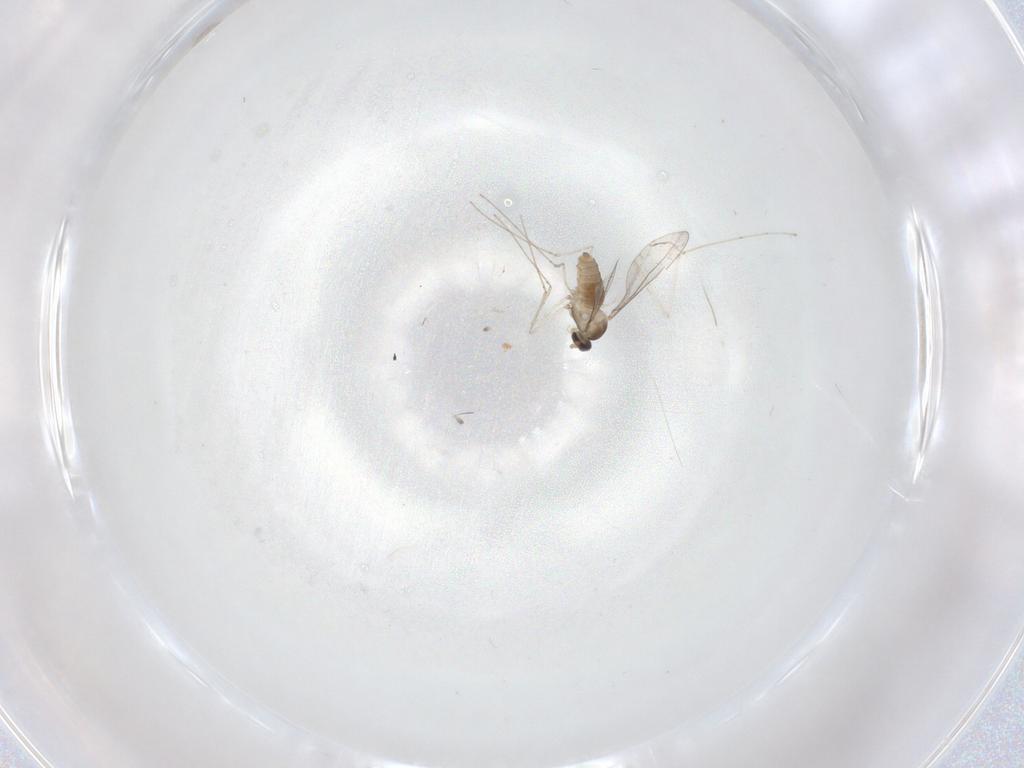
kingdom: Animalia
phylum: Arthropoda
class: Insecta
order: Diptera
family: Cecidomyiidae
